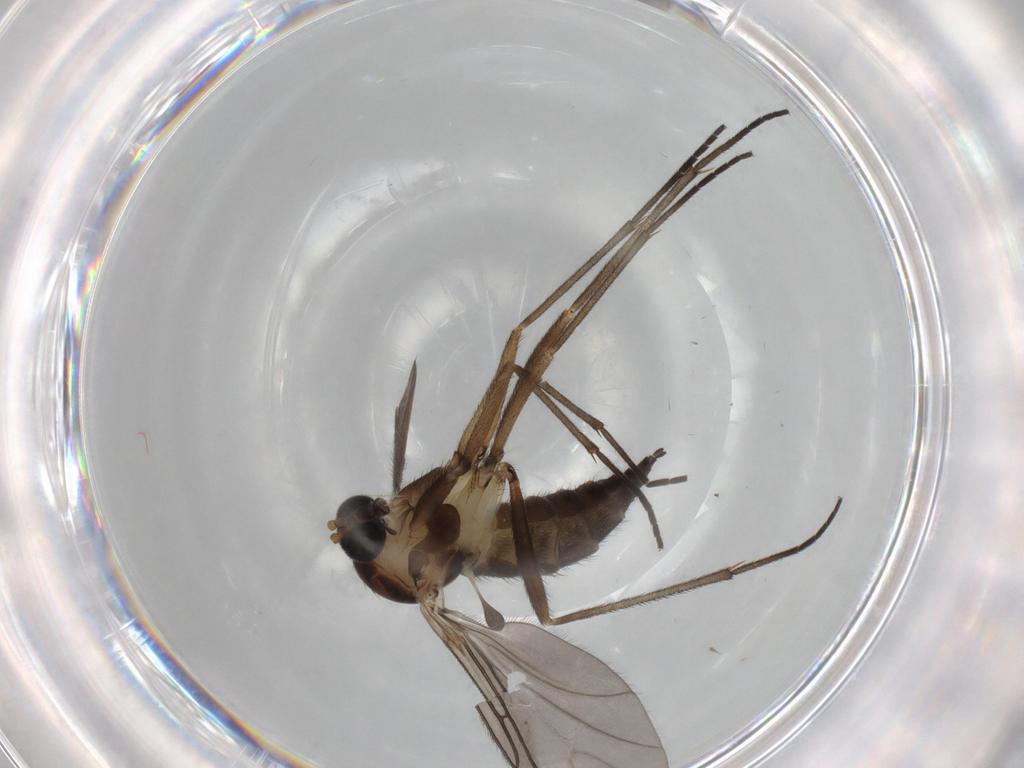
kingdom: Animalia
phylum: Arthropoda
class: Insecta
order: Diptera
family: Sciaridae
